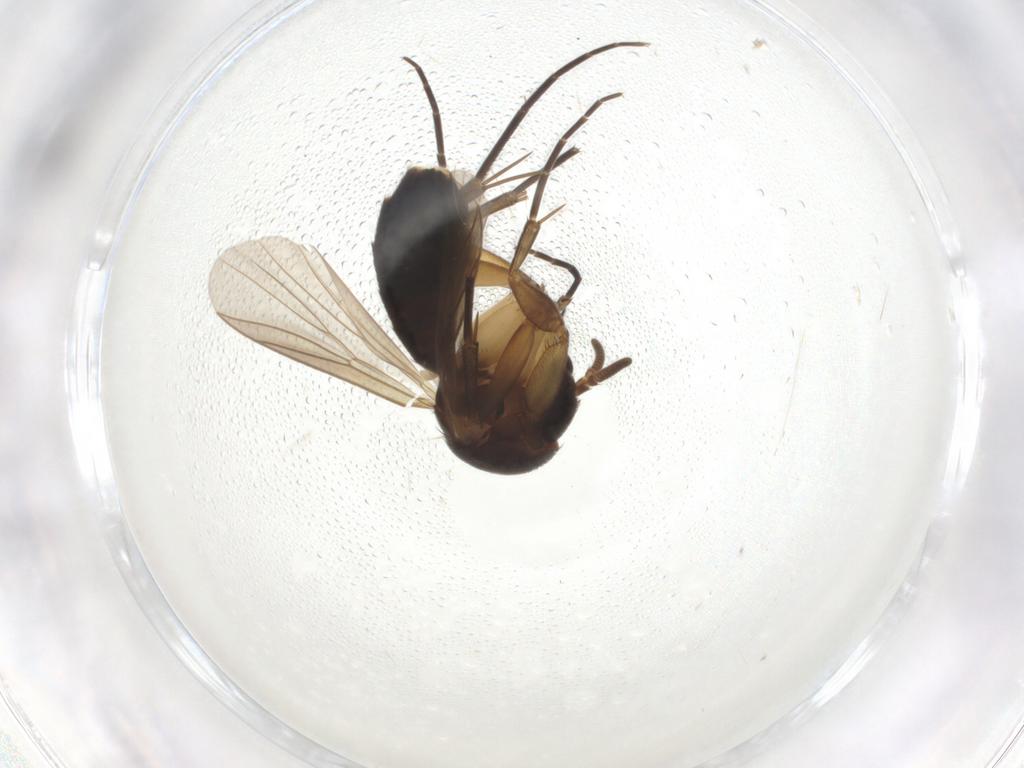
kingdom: Animalia
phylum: Arthropoda
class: Insecta
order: Diptera
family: Mycetophilidae
